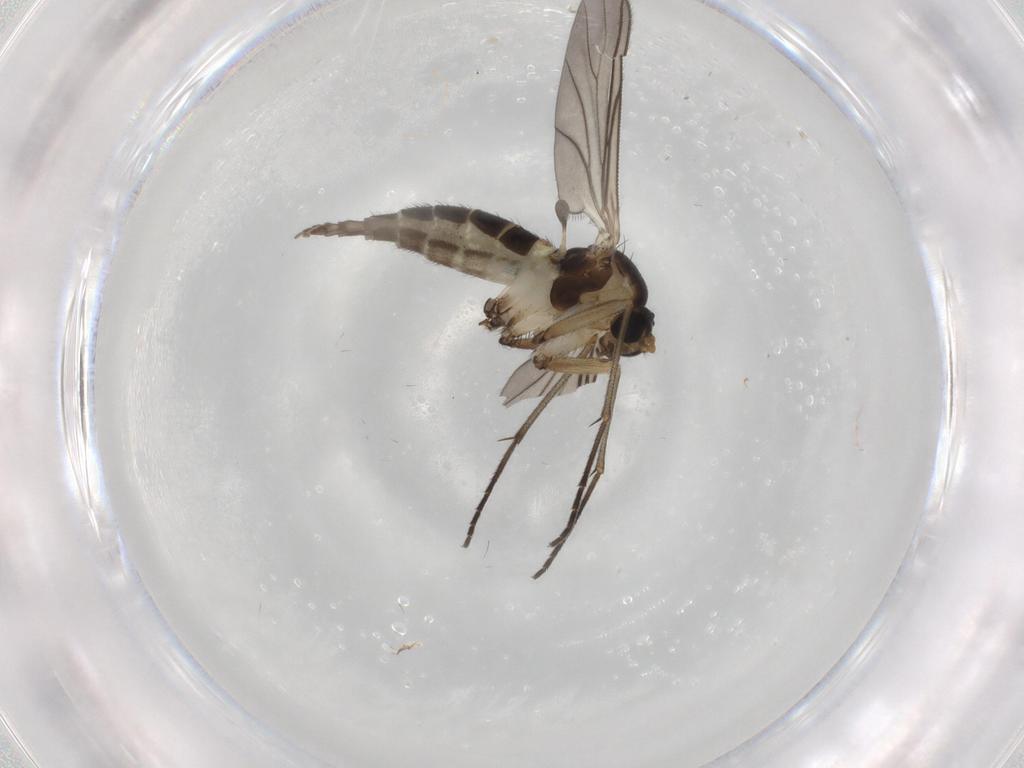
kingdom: Animalia
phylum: Arthropoda
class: Insecta
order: Diptera
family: Sciaridae
